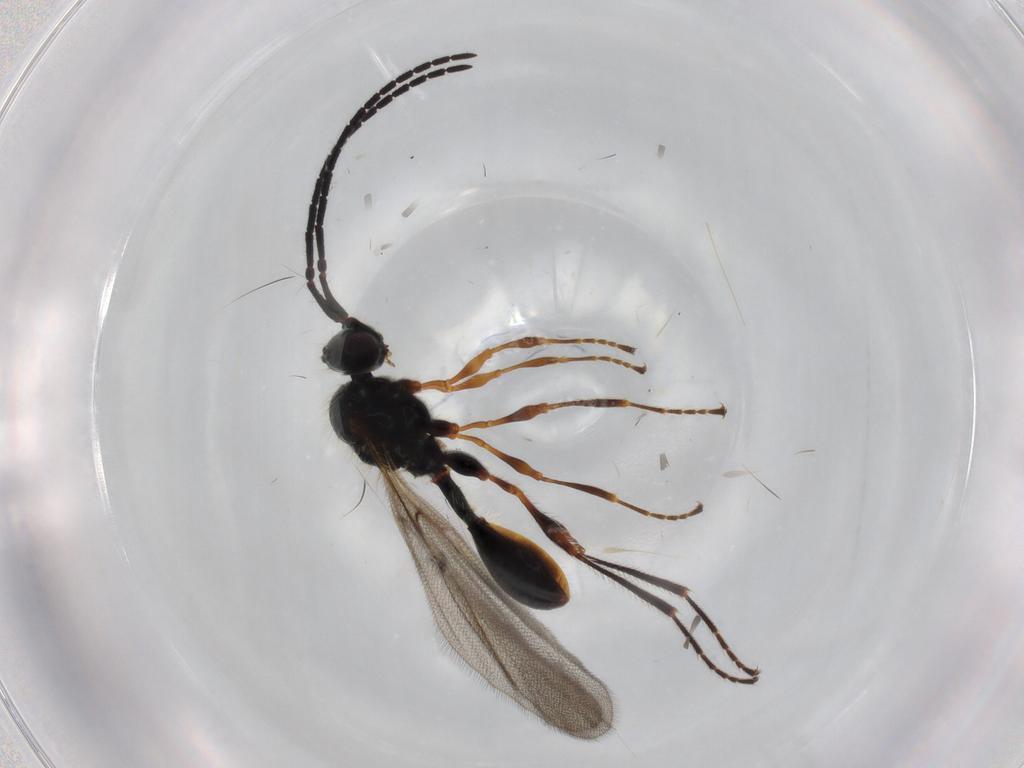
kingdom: Animalia
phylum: Arthropoda
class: Insecta
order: Hymenoptera
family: Diapriidae
